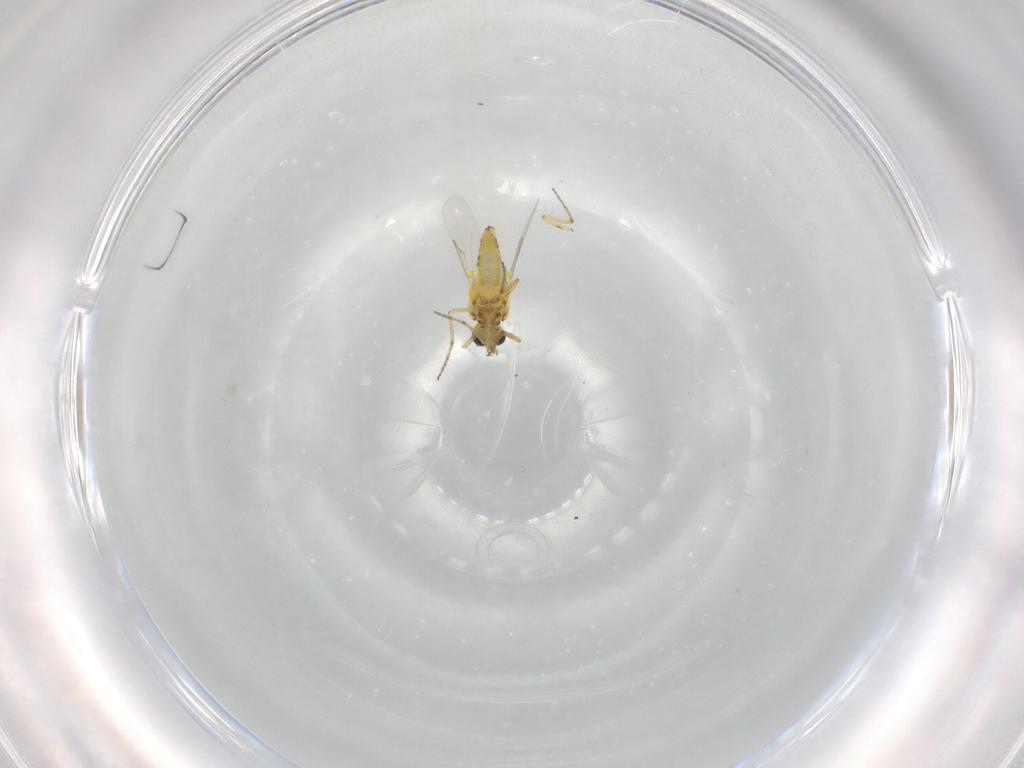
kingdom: Animalia
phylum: Arthropoda
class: Insecta
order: Diptera
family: Ceratopogonidae
